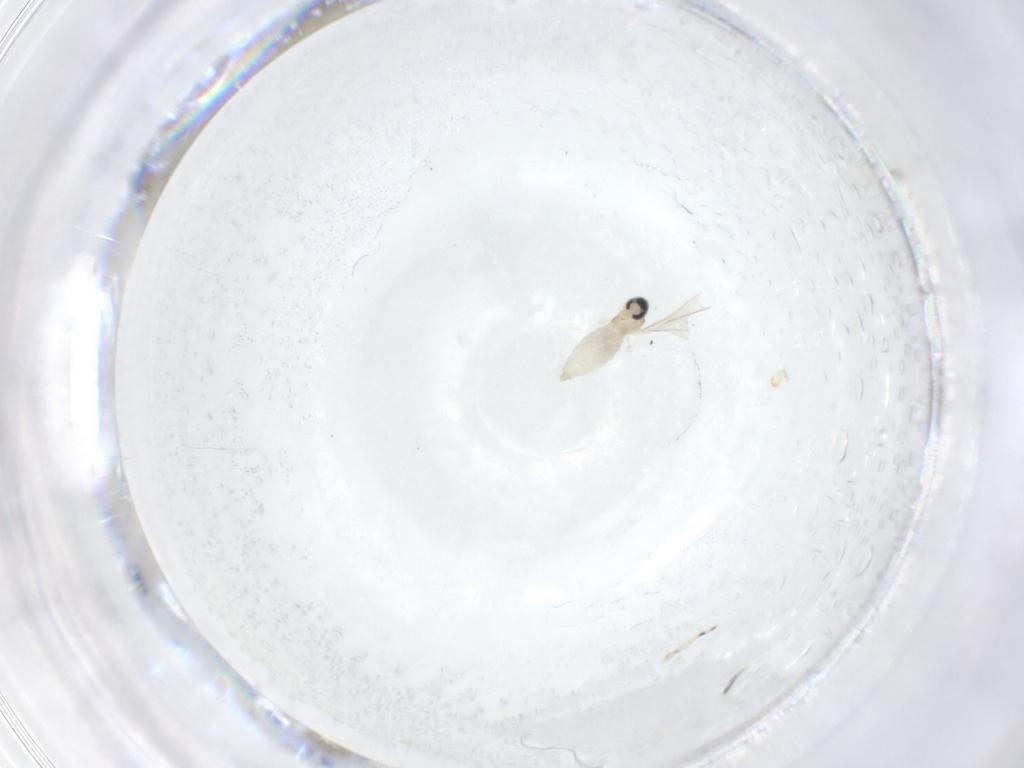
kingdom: Animalia
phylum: Arthropoda
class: Insecta
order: Diptera
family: Cecidomyiidae
